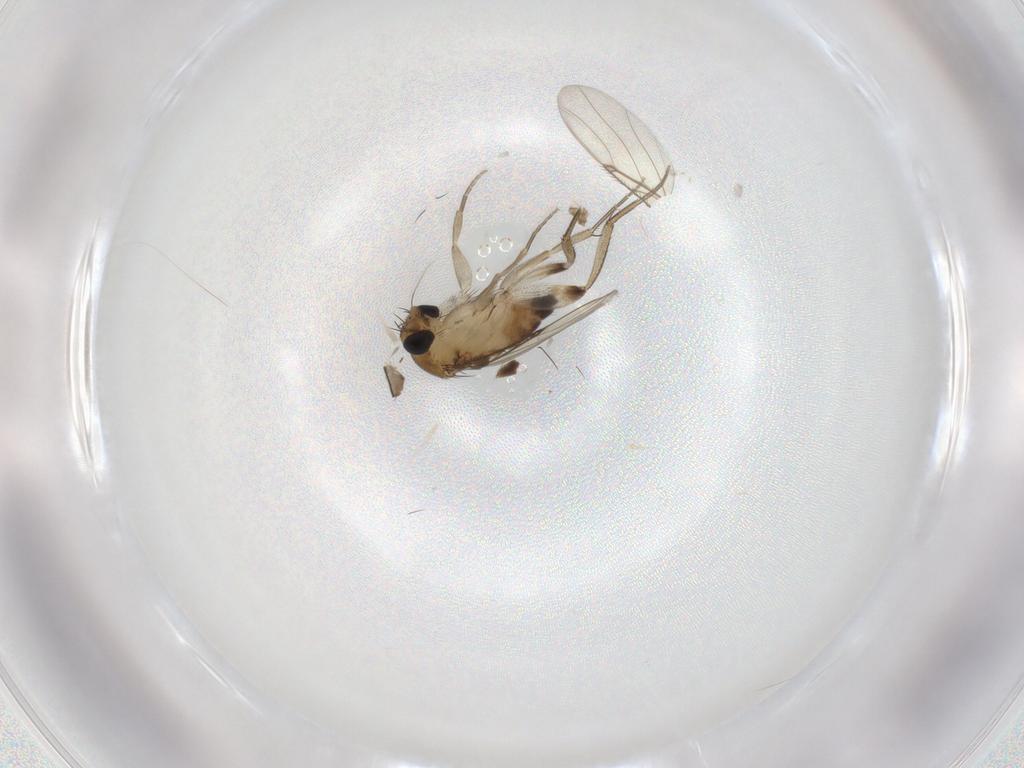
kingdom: Animalia
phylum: Arthropoda
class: Insecta
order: Diptera
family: Phoridae
